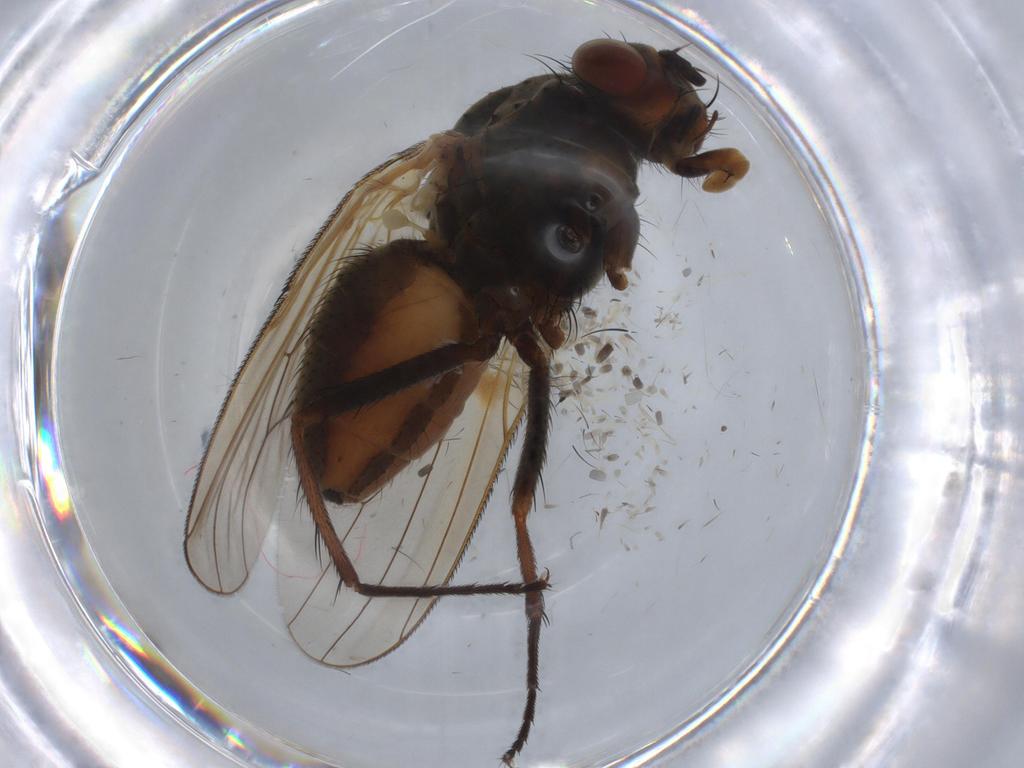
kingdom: Animalia
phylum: Arthropoda
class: Insecta
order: Diptera
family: Anthomyiidae
